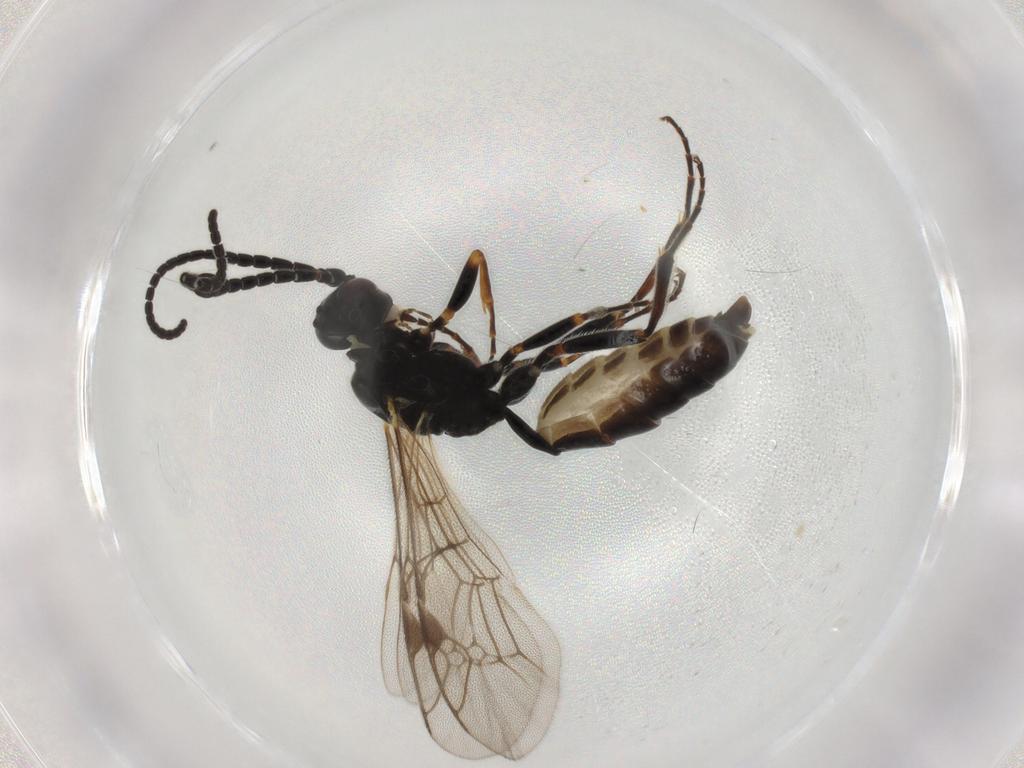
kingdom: Animalia
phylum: Arthropoda
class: Insecta
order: Hymenoptera
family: Ichneumonidae
